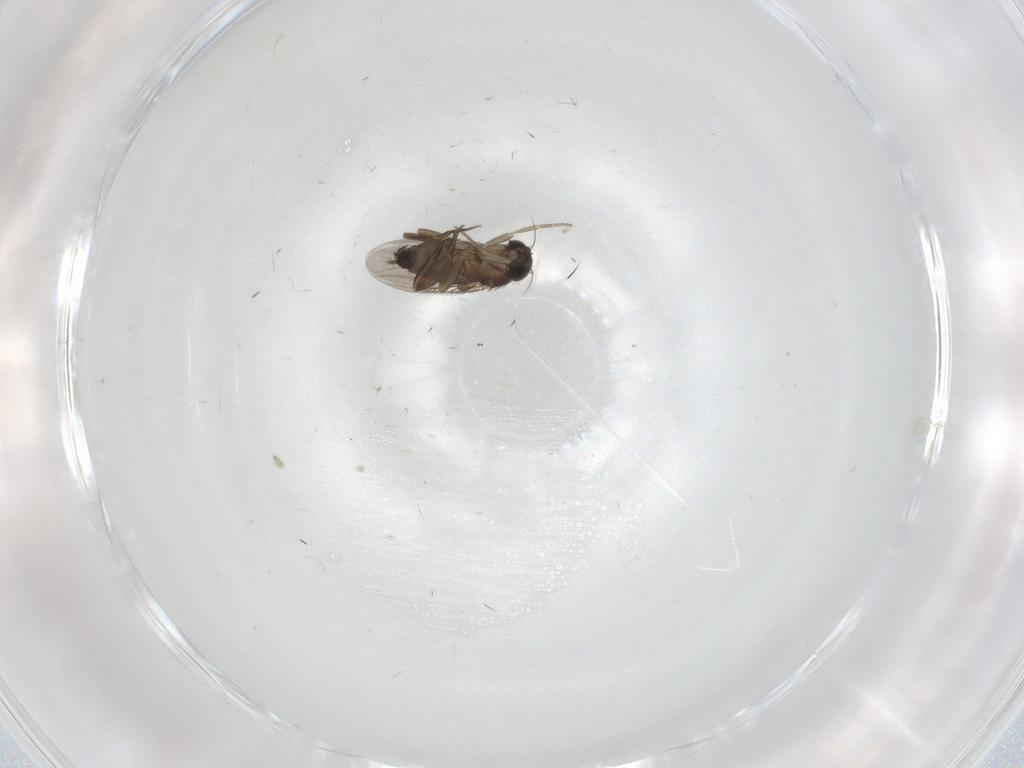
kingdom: Animalia
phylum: Arthropoda
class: Insecta
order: Diptera
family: Phoridae
